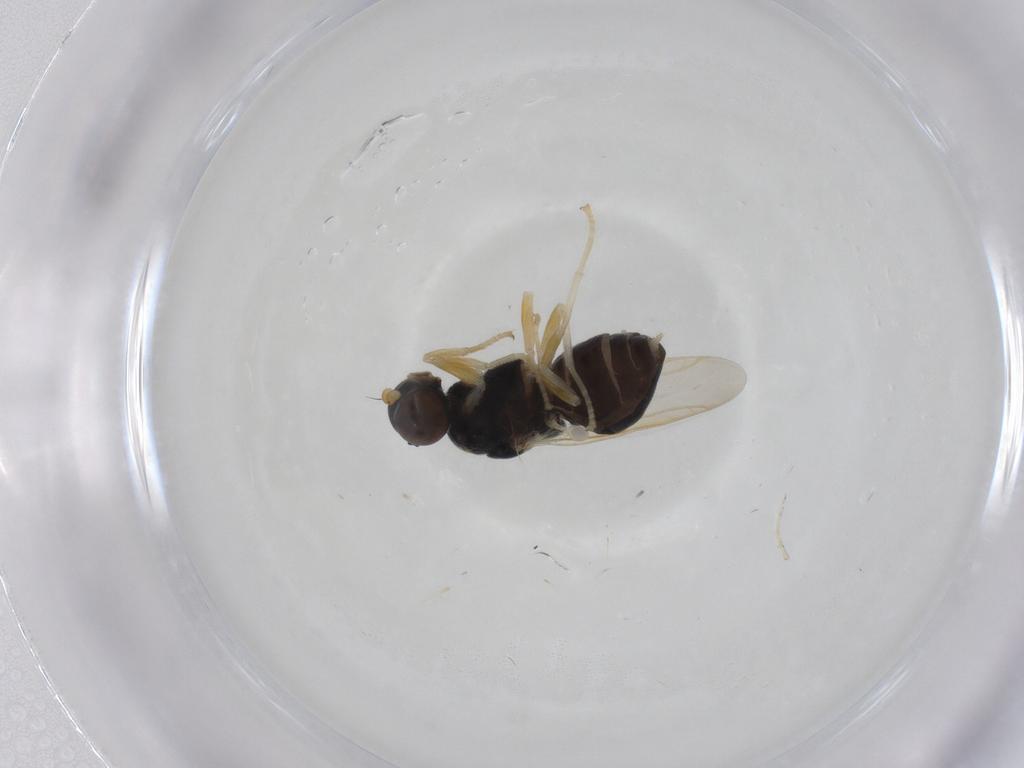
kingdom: Animalia
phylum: Arthropoda
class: Insecta
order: Diptera
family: Stratiomyidae
